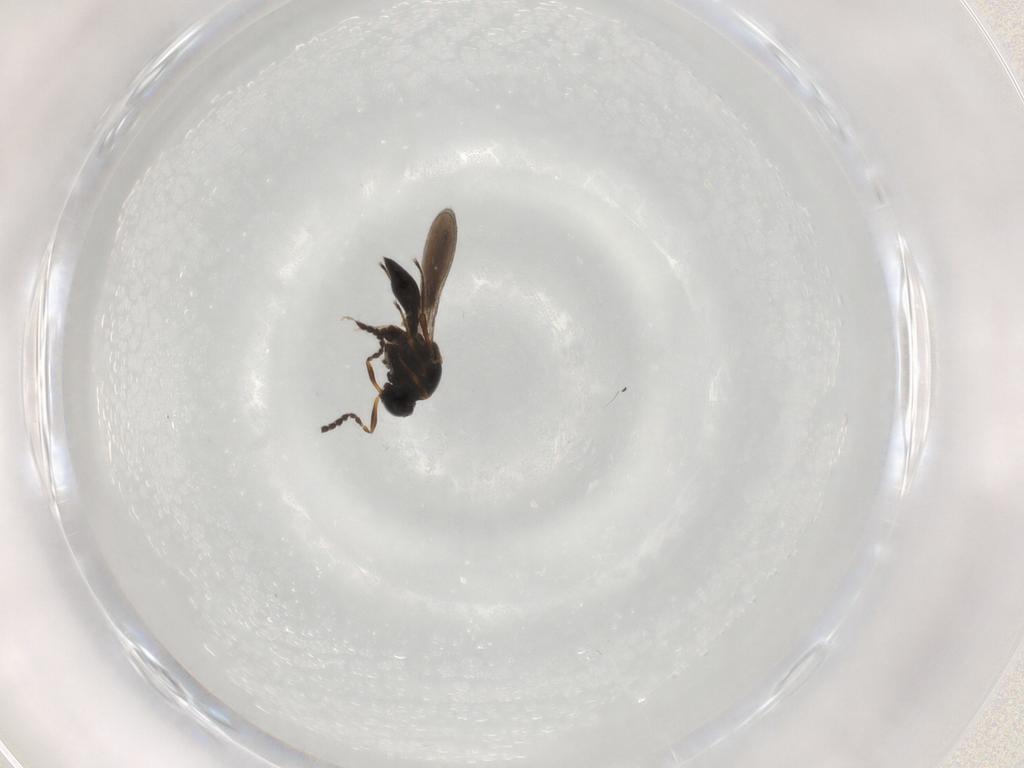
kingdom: Animalia
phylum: Arthropoda
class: Insecta
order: Hymenoptera
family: Platygastridae
